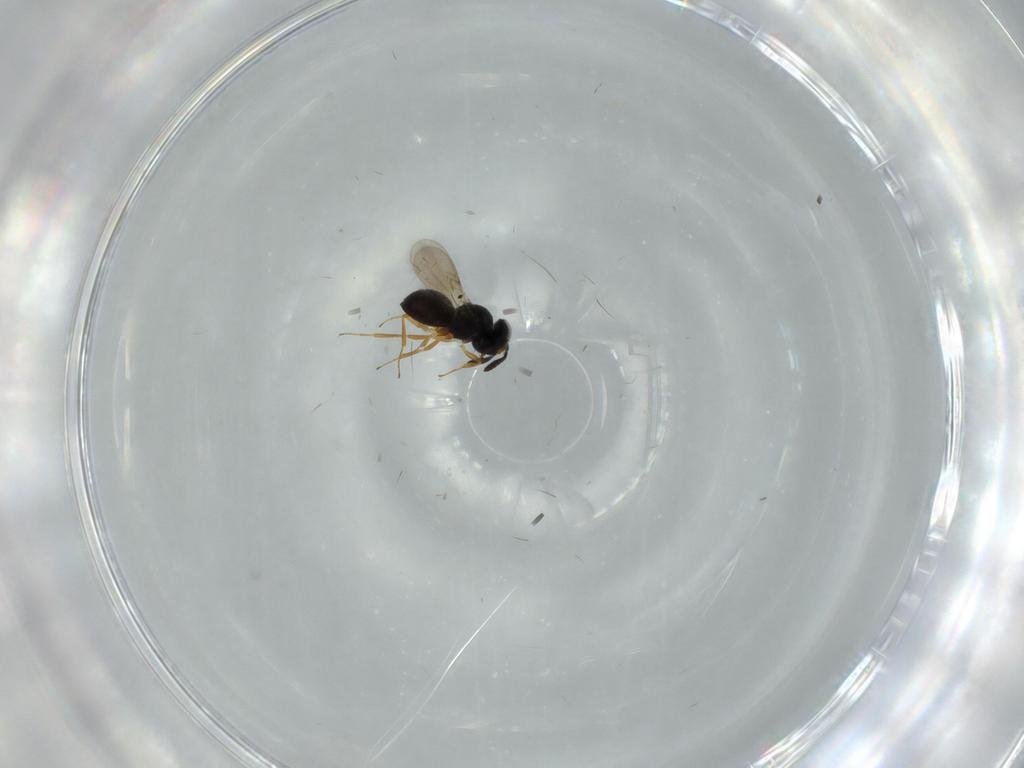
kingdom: Animalia
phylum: Arthropoda
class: Insecta
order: Hymenoptera
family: Scelionidae
